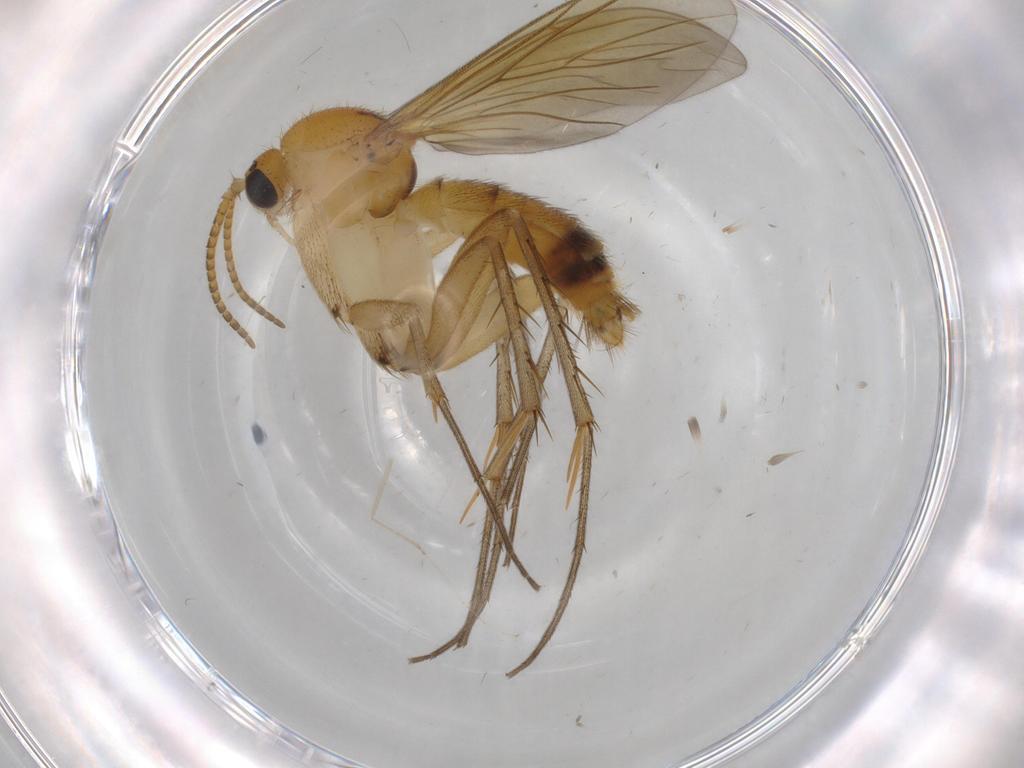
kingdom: Animalia
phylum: Arthropoda
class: Insecta
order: Diptera
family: Mycetophilidae
